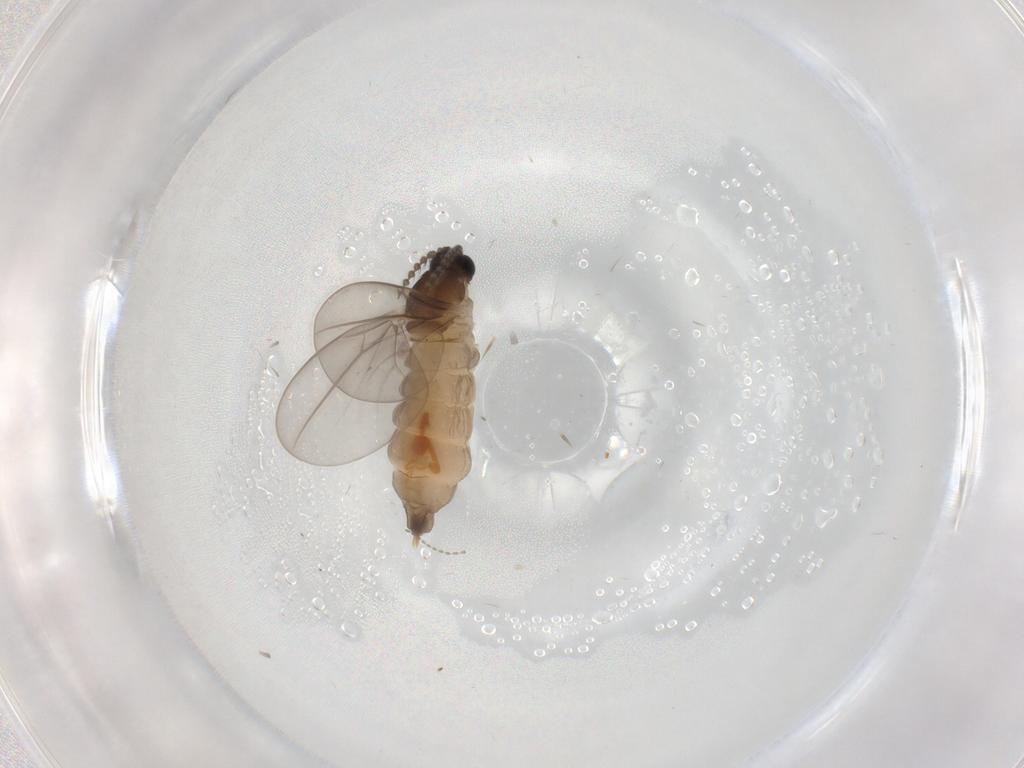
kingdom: Animalia
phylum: Arthropoda
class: Insecta
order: Diptera
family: Cecidomyiidae
